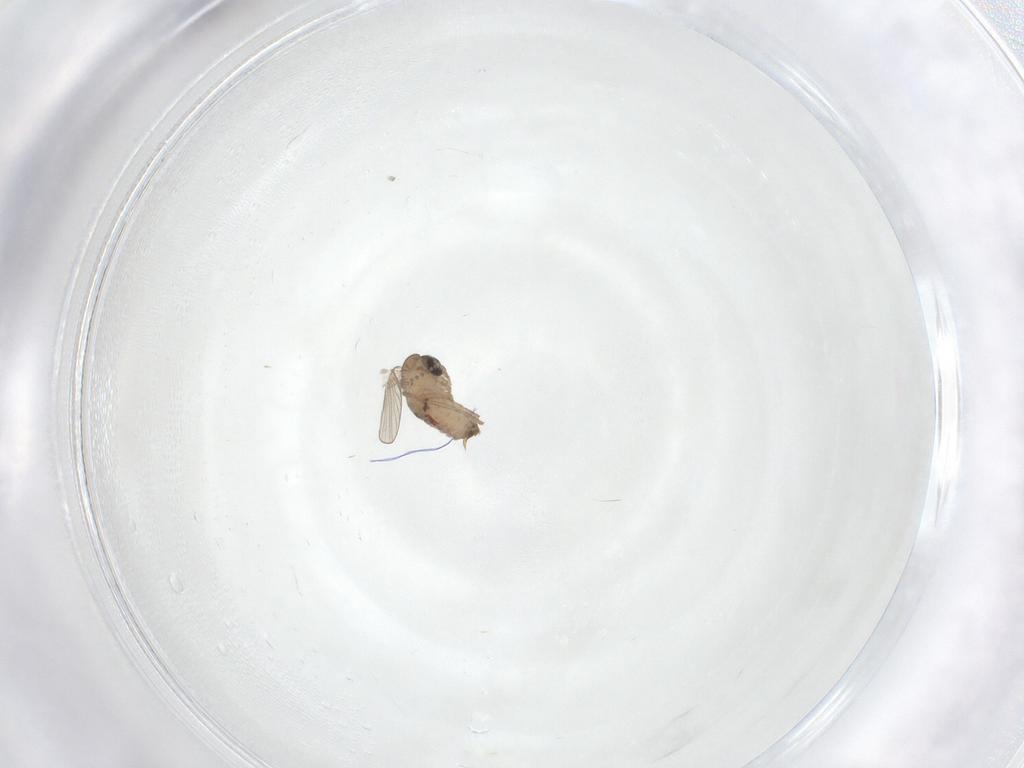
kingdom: Animalia
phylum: Arthropoda
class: Insecta
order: Diptera
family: Psychodidae
